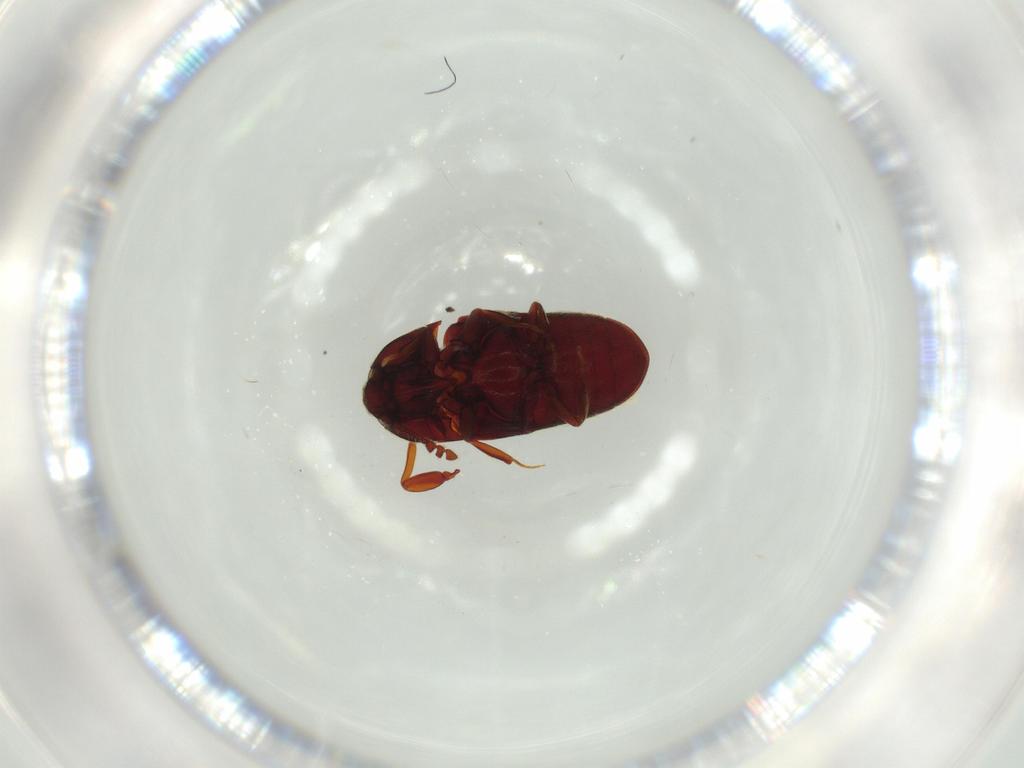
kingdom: Animalia
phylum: Arthropoda
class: Insecta
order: Coleoptera
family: Throscidae
